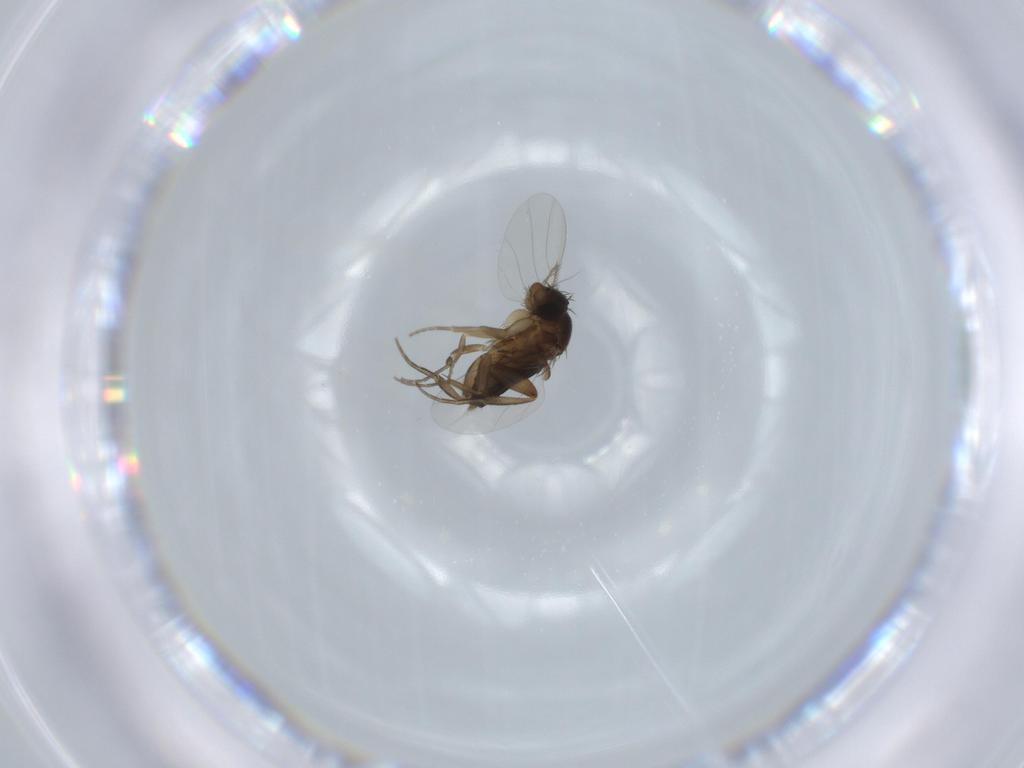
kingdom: Animalia
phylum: Arthropoda
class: Insecta
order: Diptera
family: Phoridae
